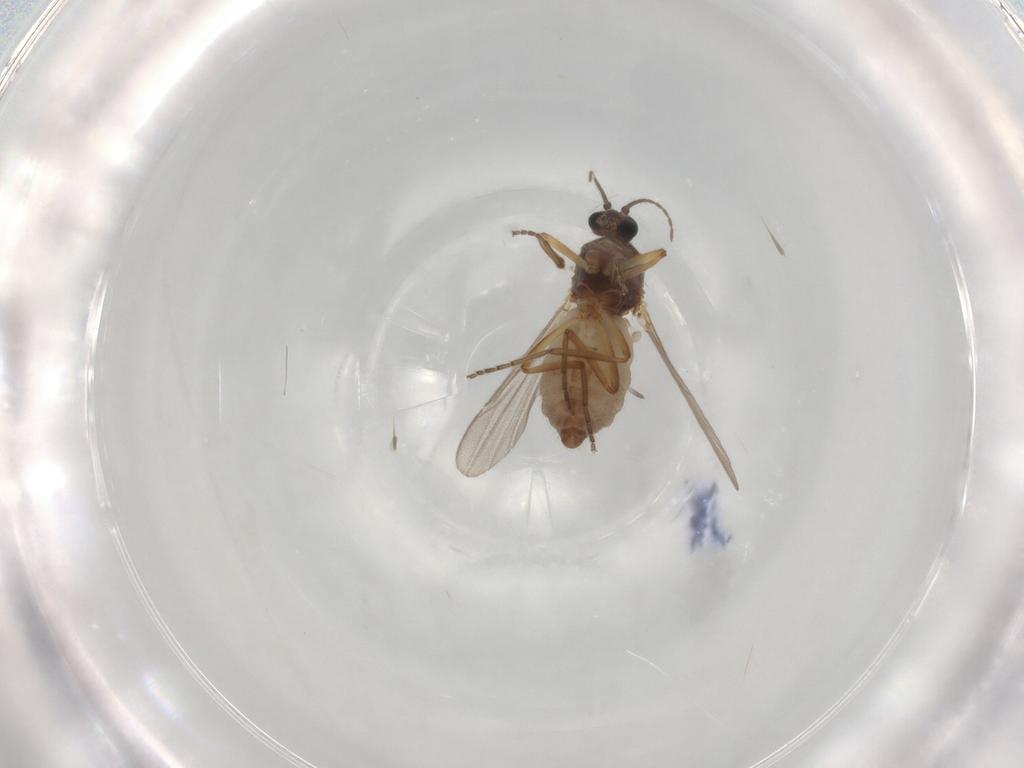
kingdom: Animalia
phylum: Arthropoda
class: Insecta
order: Diptera
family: Ceratopogonidae
